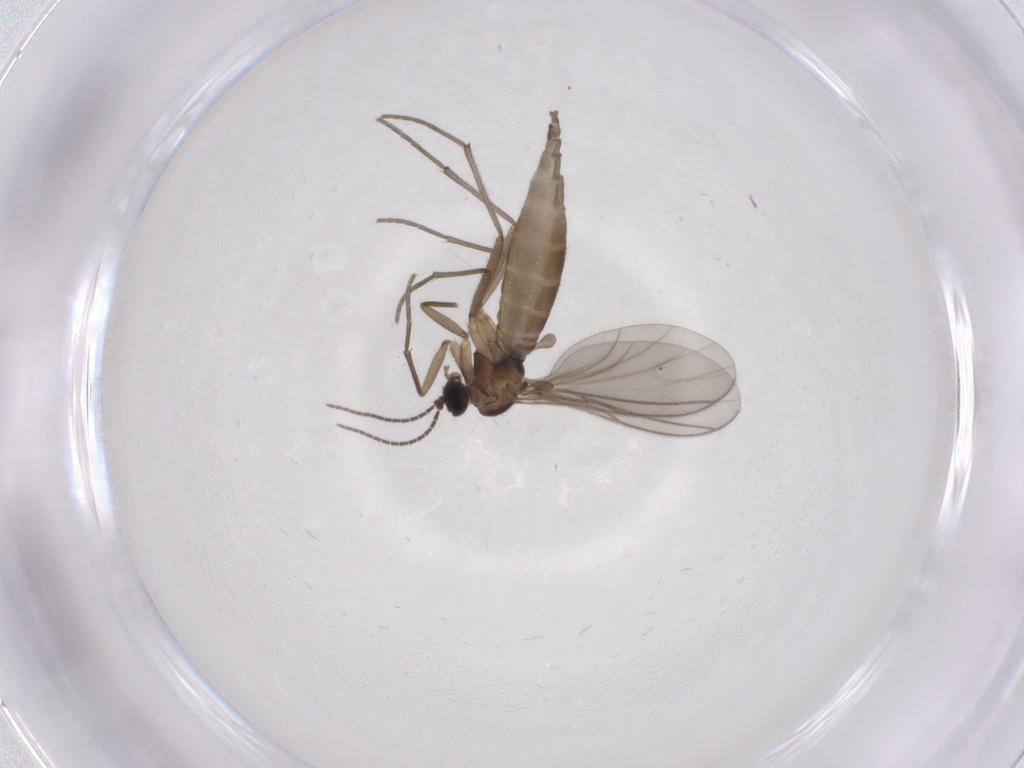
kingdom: Animalia
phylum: Arthropoda
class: Insecta
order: Diptera
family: Sciaridae
